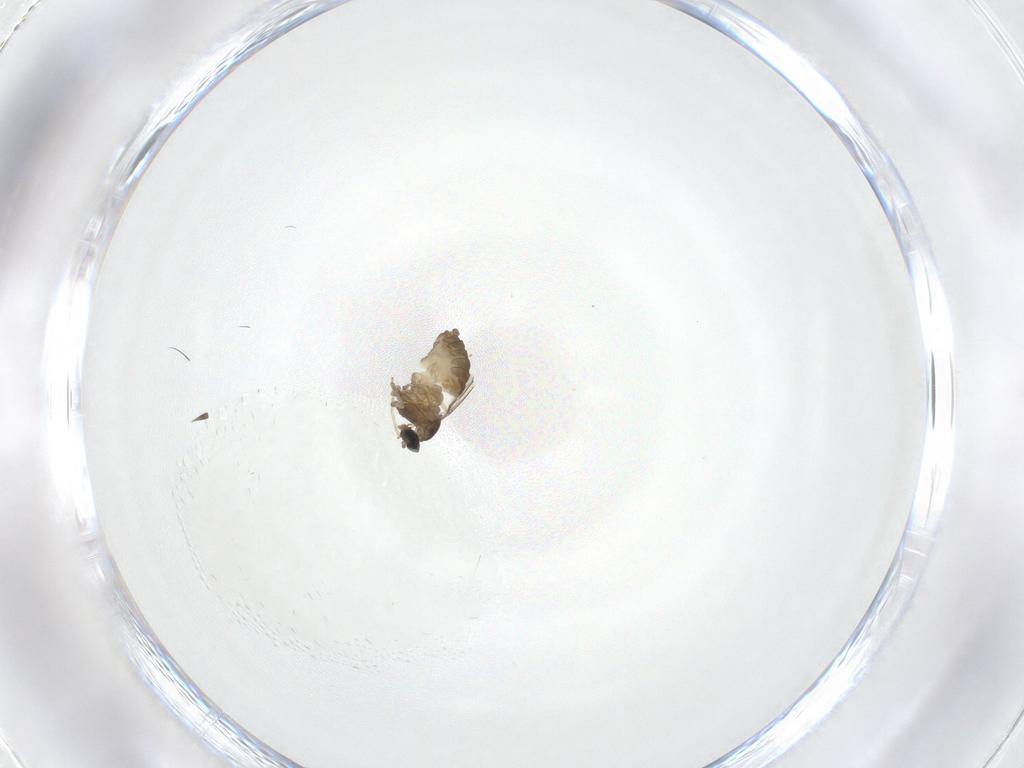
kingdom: Animalia
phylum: Arthropoda
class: Insecta
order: Diptera
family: Cecidomyiidae
